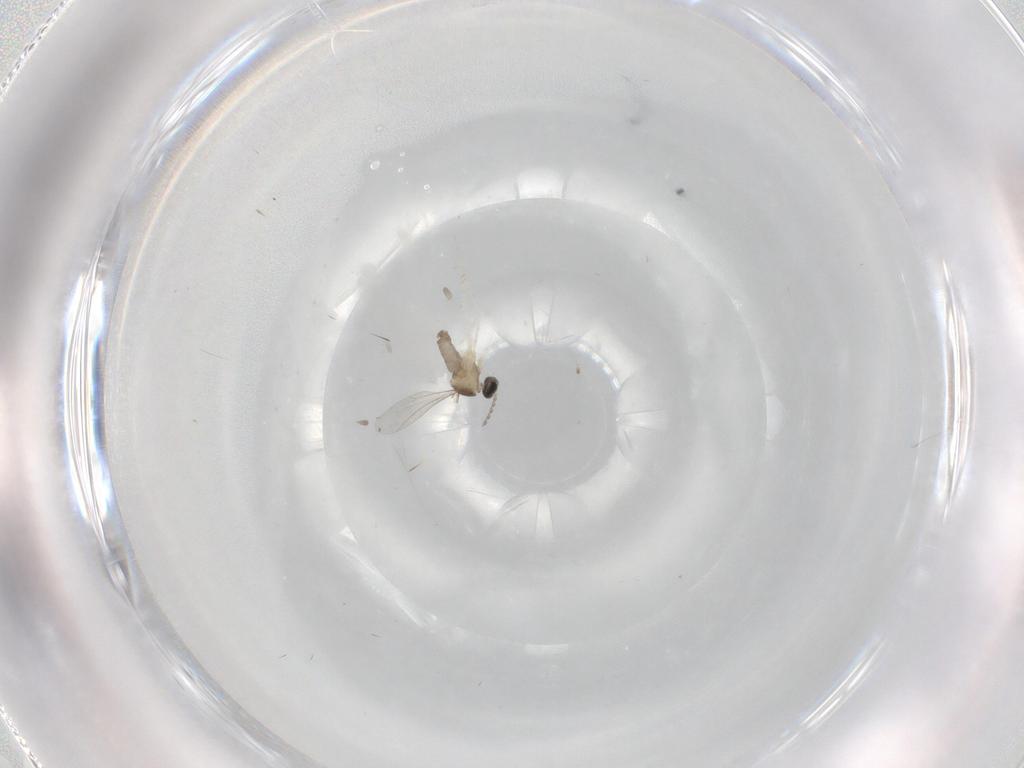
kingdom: Animalia
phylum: Arthropoda
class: Insecta
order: Diptera
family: Cecidomyiidae
